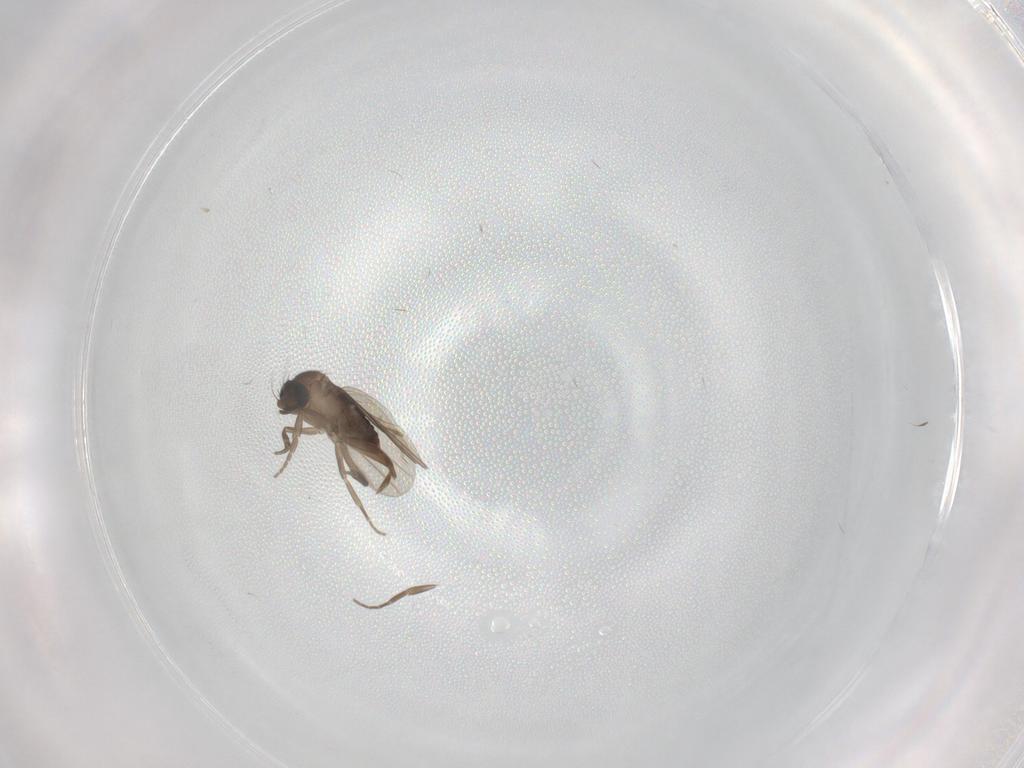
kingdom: Animalia
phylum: Arthropoda
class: Insecta
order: Diptera
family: Phoridae
